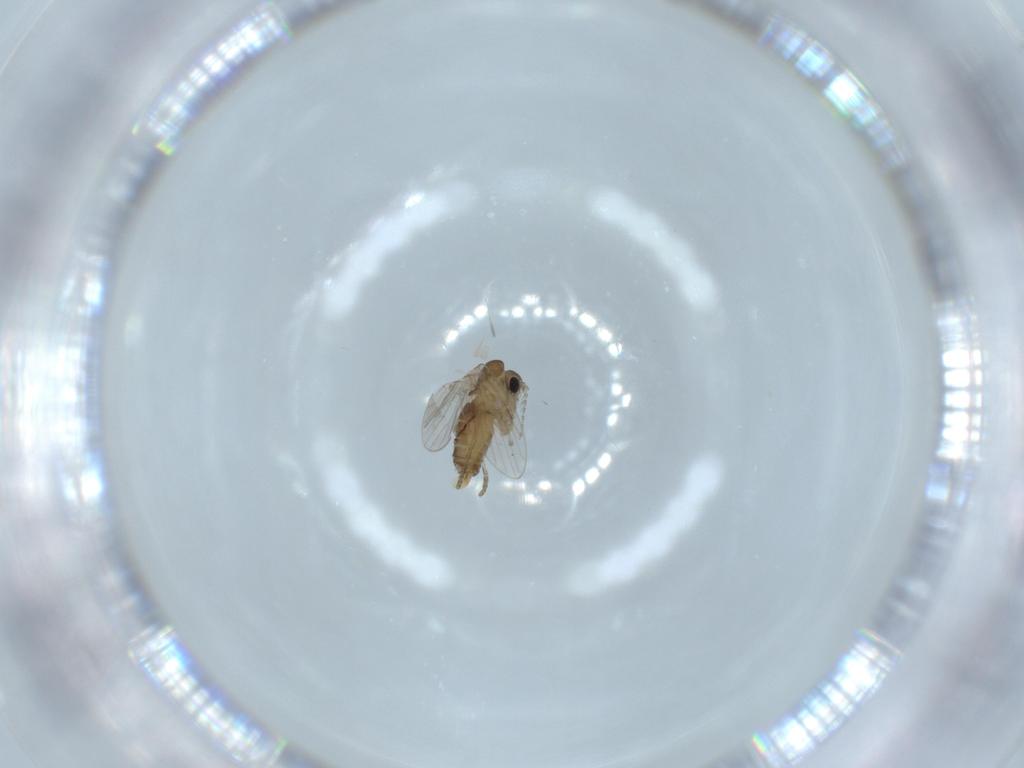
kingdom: Animalia
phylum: Arthropoda
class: Insecta
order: Diptera
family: Psychodidae
